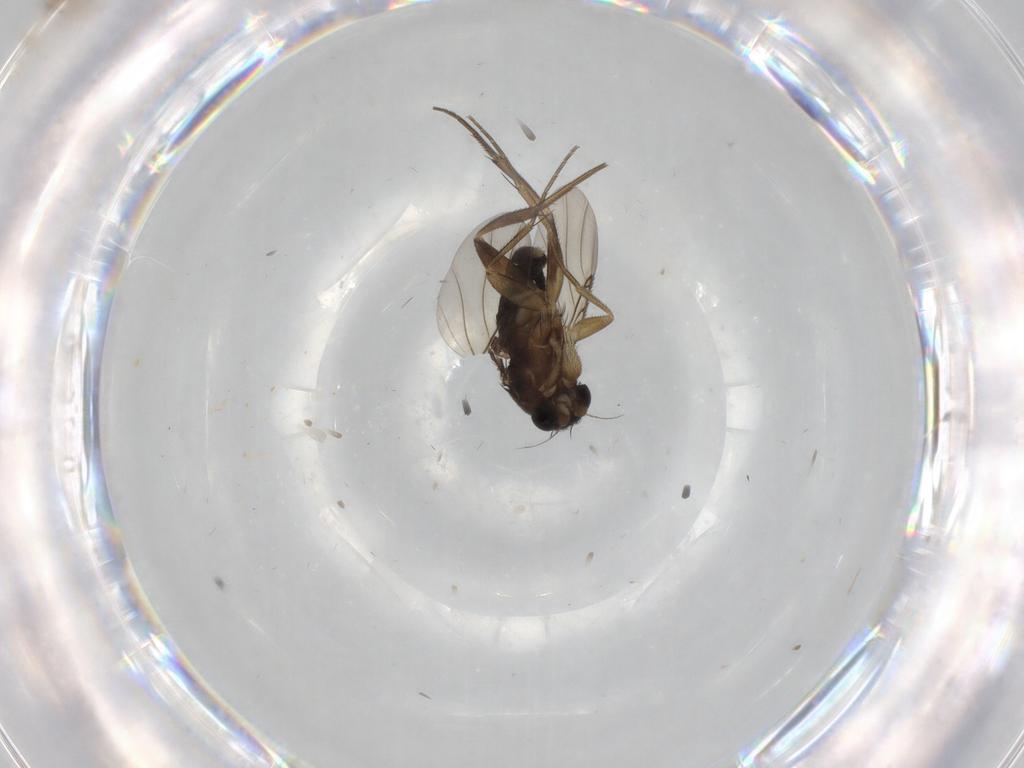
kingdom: Animalia
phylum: Arthropoda
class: Insecta
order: Diptera
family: Phoridae
